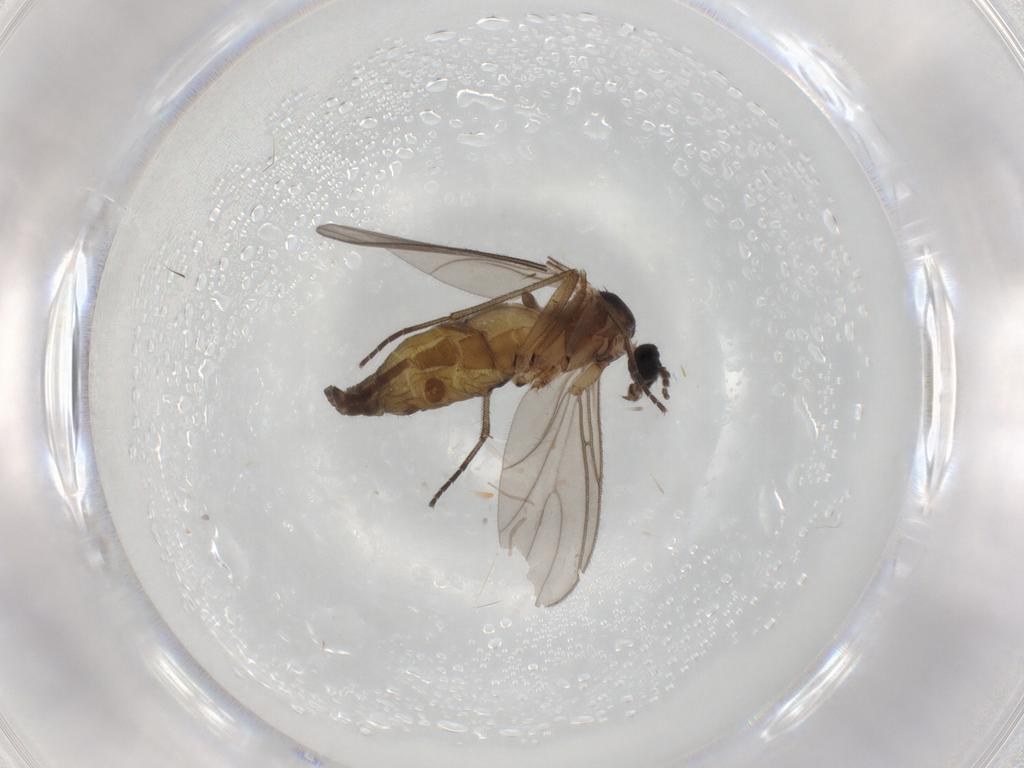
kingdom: Animalia
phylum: Arthropoda
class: Insecta
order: Diptera
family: Sciaridae
